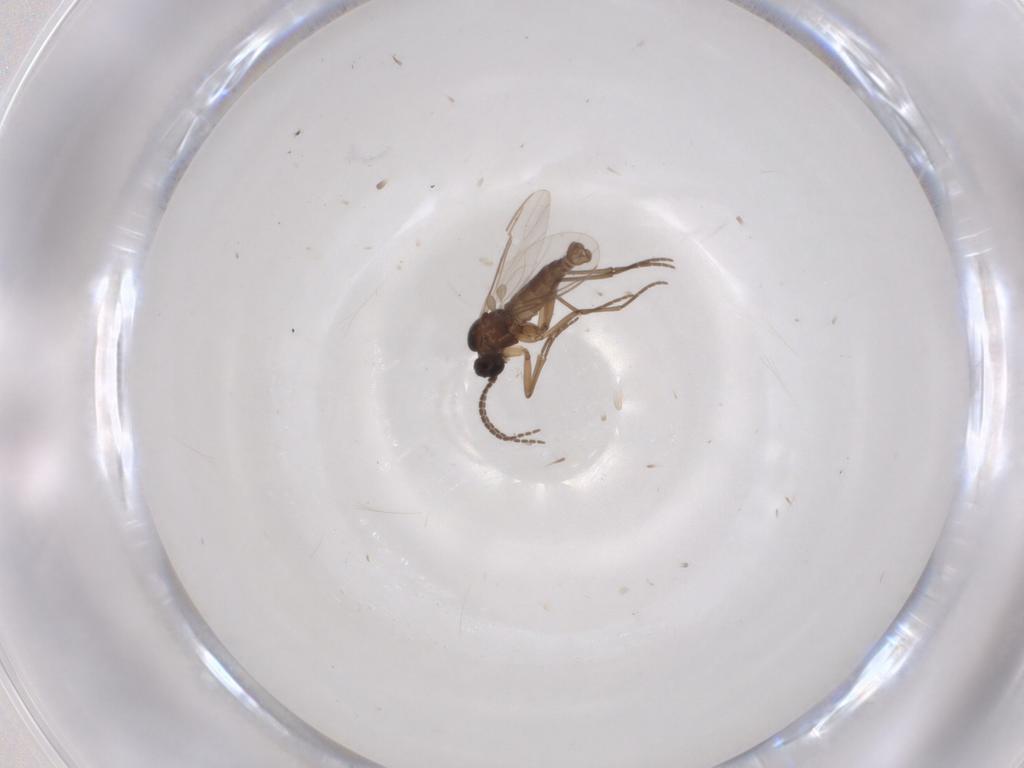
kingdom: Animalia
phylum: Arthropoda
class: Insecta
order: Diptera
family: Sciaridae
